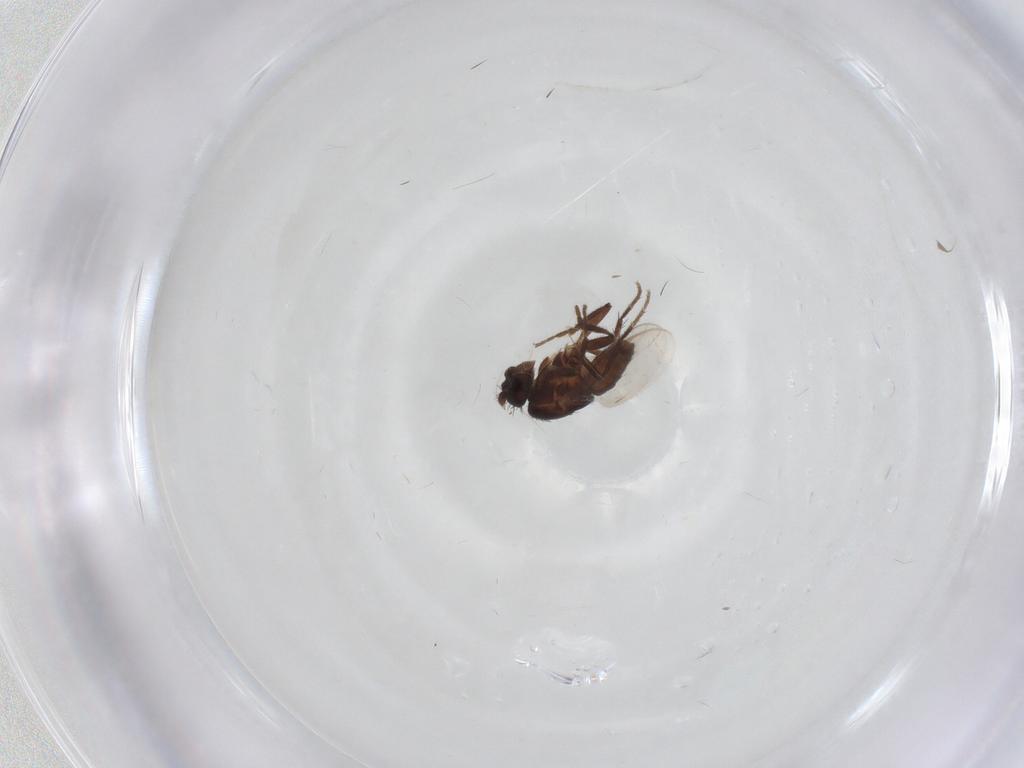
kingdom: Animalia
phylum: Arthropoda
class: Insecta
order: Diptera
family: Sphaeroceridae
